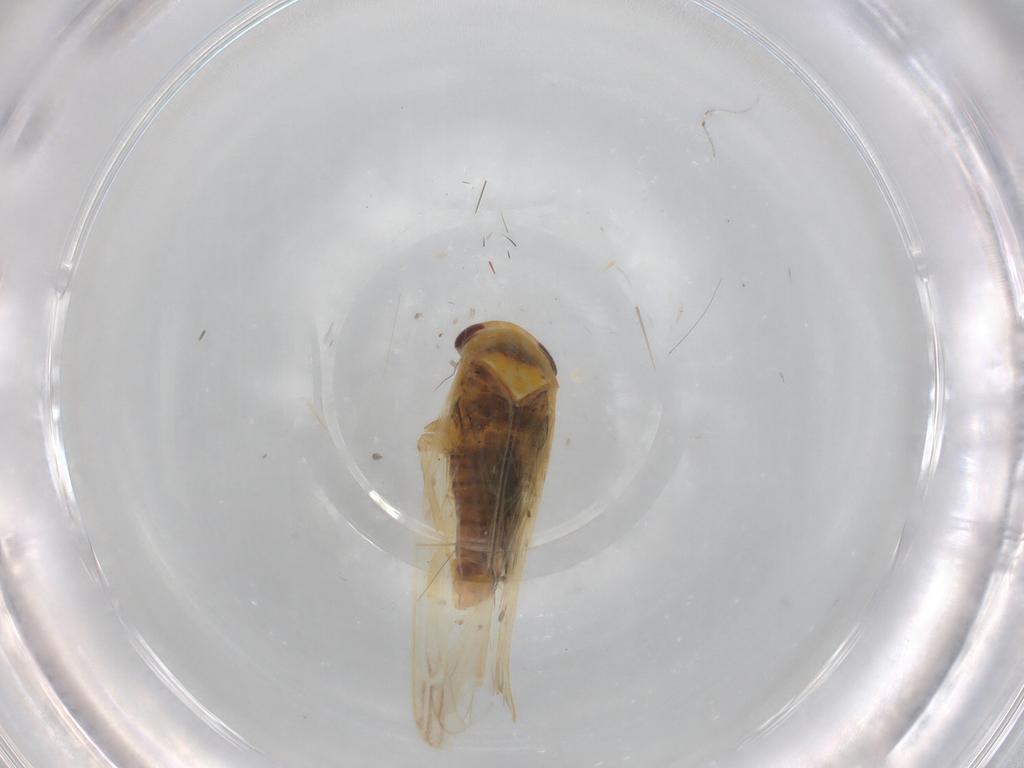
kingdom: Animalia
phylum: Arthropoda
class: Insecta
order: Hemiptera
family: Cicadellidae
